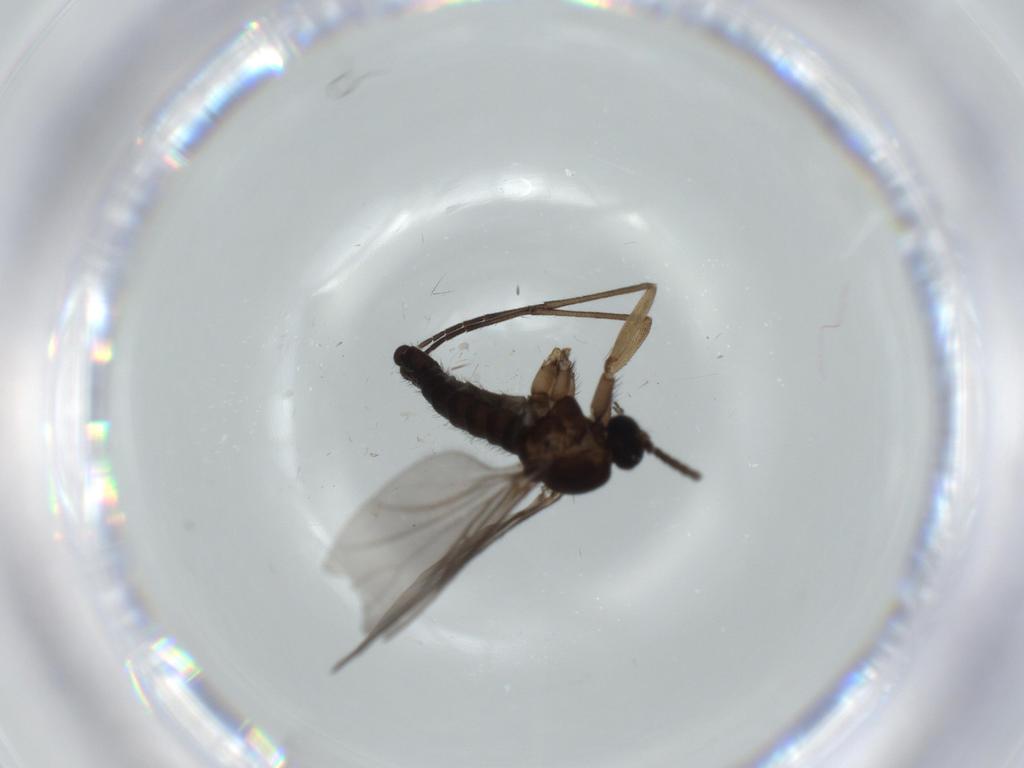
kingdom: Animalia
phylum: Arthropoda
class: Insecta
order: Diptera
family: Sciaridae
